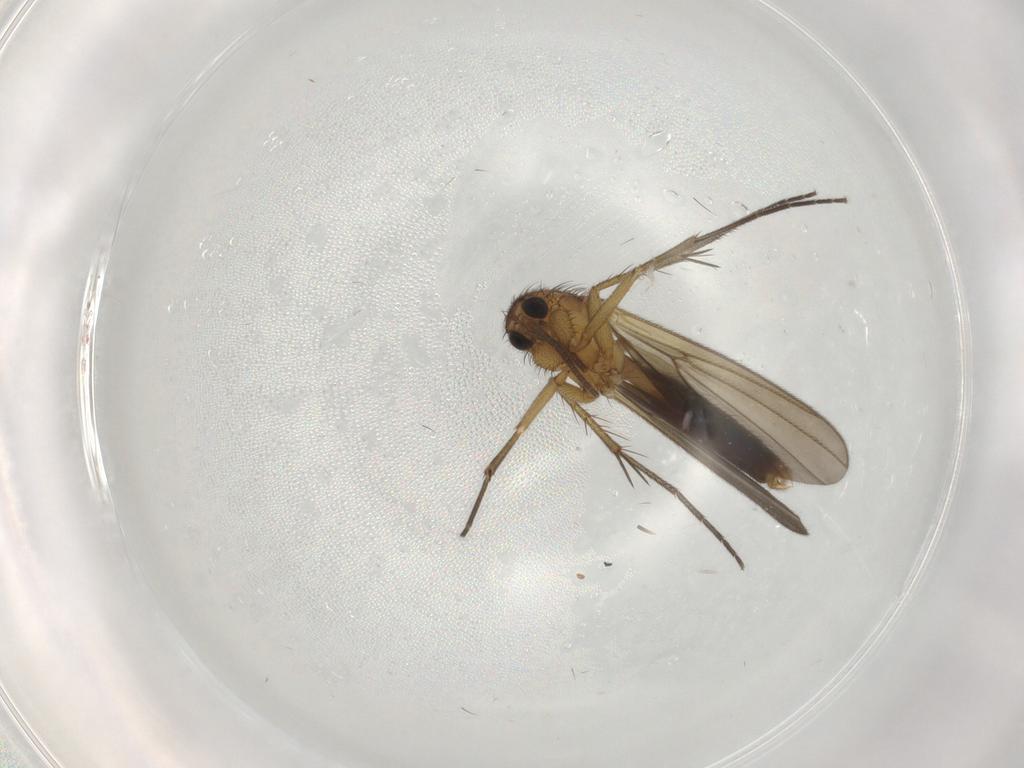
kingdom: Animalia
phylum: Arthropoda
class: Insecta
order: Diptera
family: Mycetophilidae
